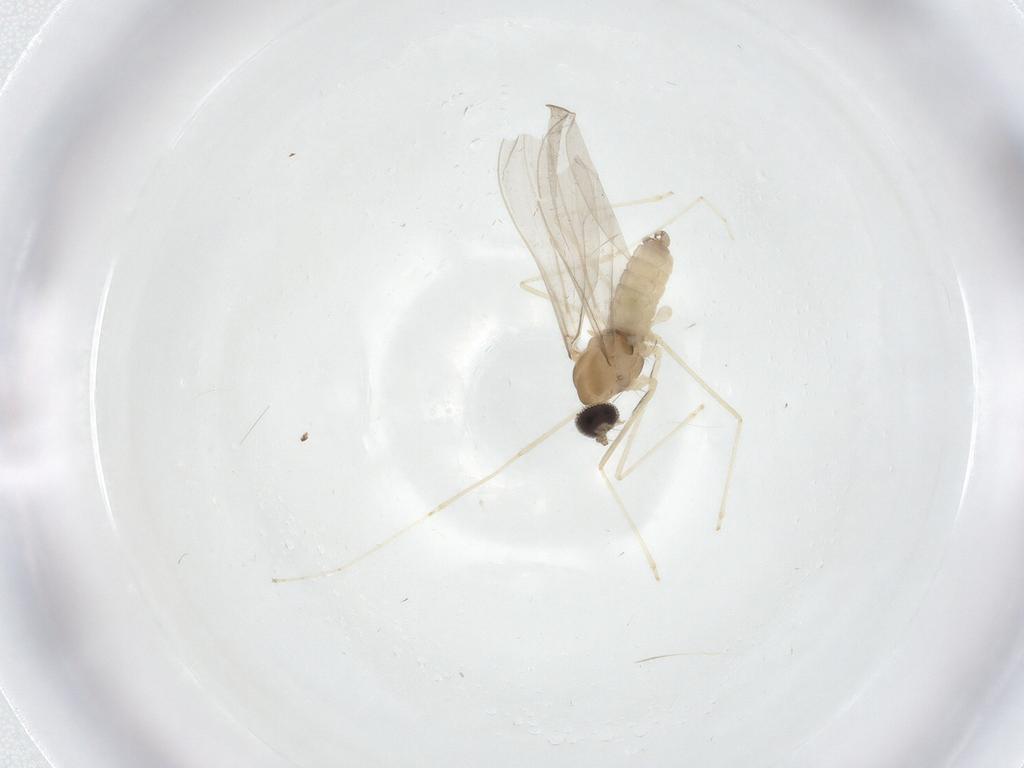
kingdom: Animalia
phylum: Arthropoda
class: Insecta
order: Diptera
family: Cecidomyiidae
